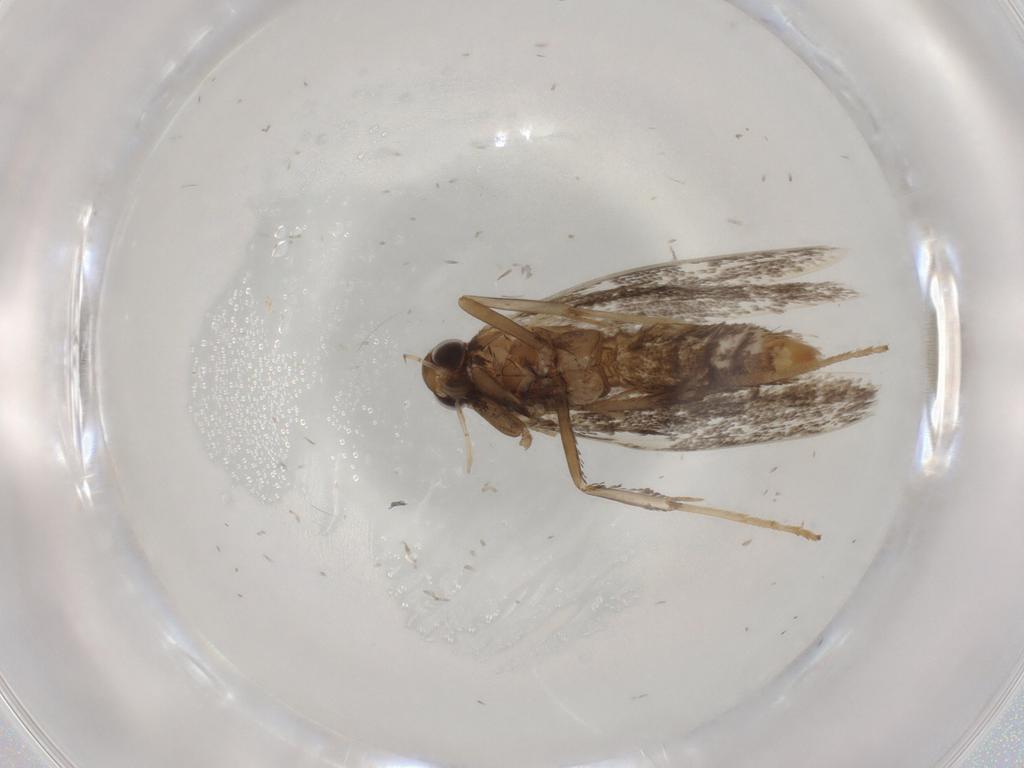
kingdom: Animalia
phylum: Arthropoda
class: Insecta
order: Lepidoptera
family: Gracillariidae
